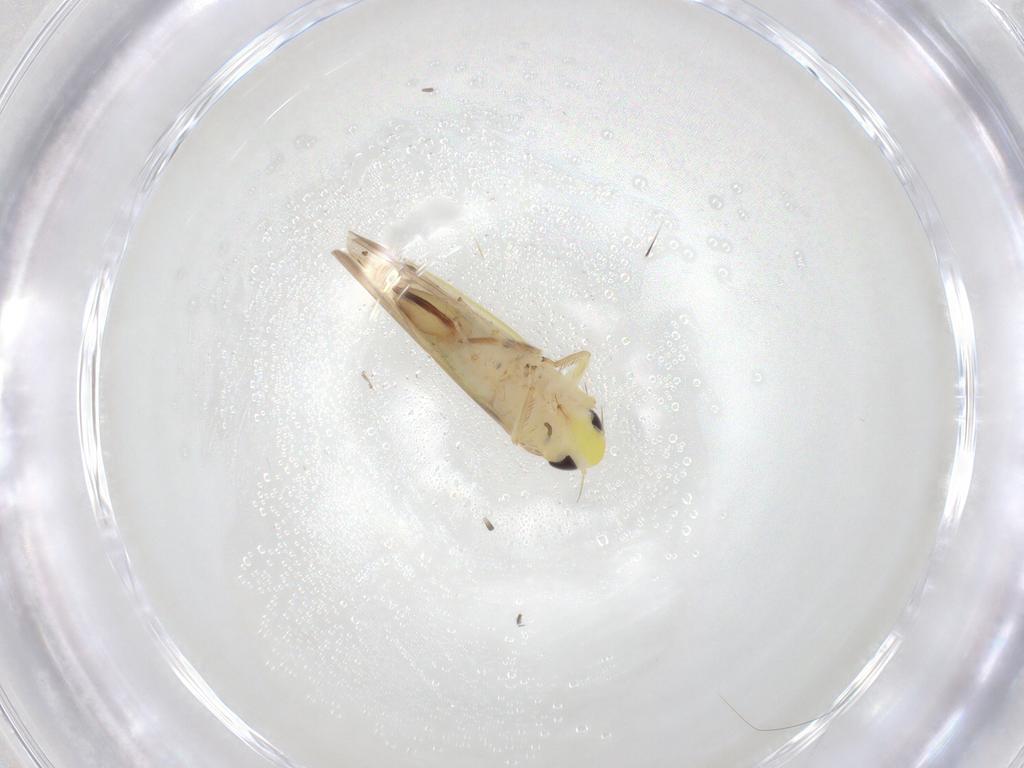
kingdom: Animalia
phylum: Arthropoda
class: Insecta
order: Hemiptera
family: Cicadellidae
